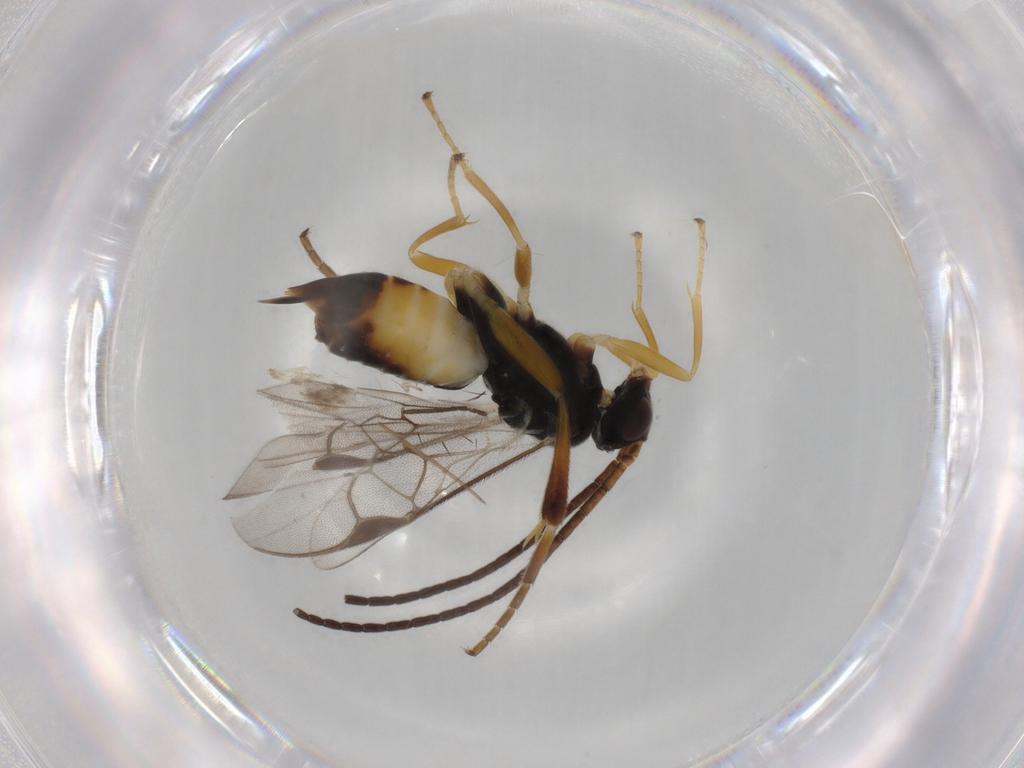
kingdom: Animalia
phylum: Arthropoda
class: Insecta
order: Hymenoptera
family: Braconidae
